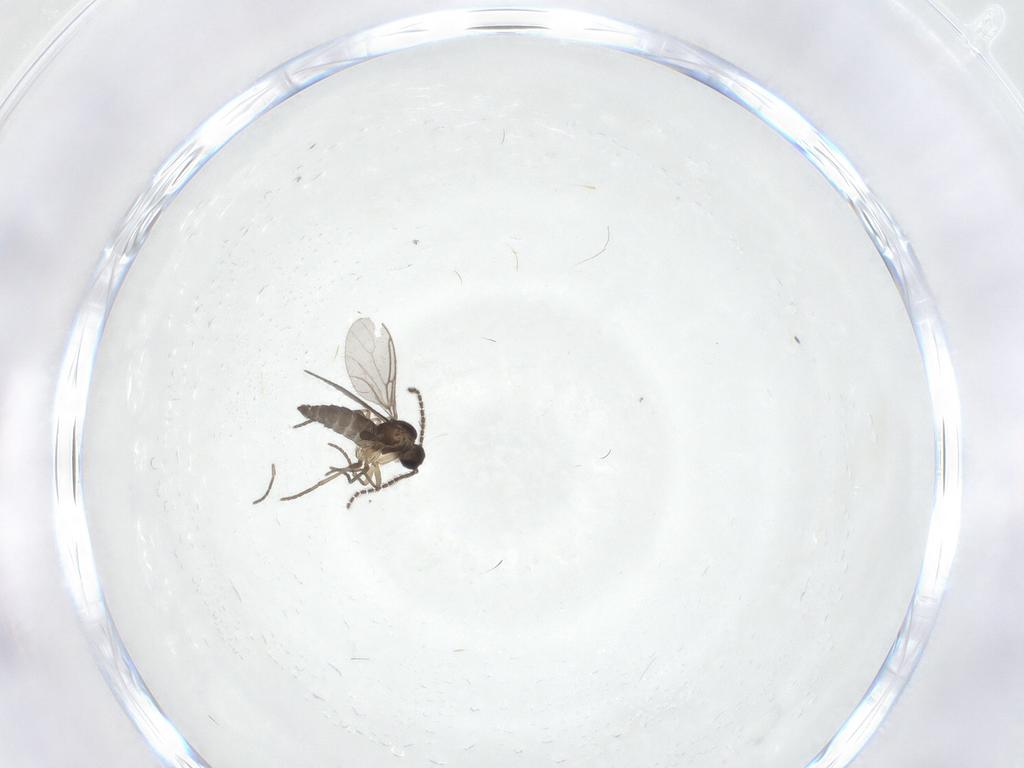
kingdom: Animalia
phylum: Arthropoda
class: Insecta
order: Diptera
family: Sciaridae
